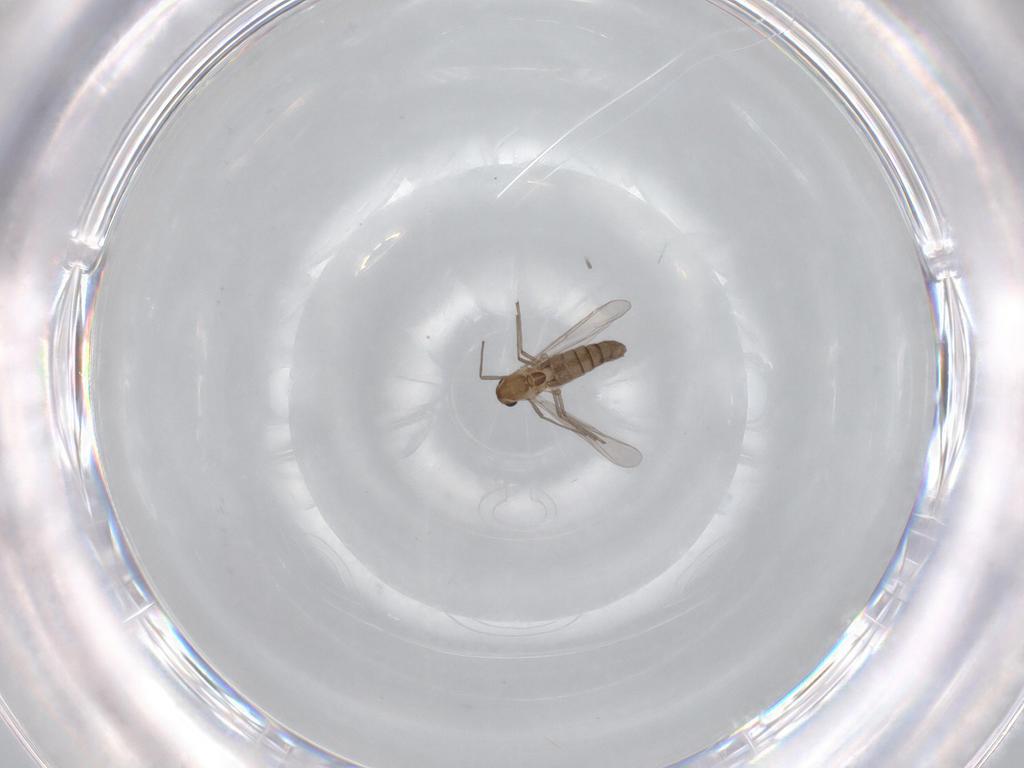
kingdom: Animalia
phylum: Arthropoda
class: Insecta
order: Diptera
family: Chironomidae
